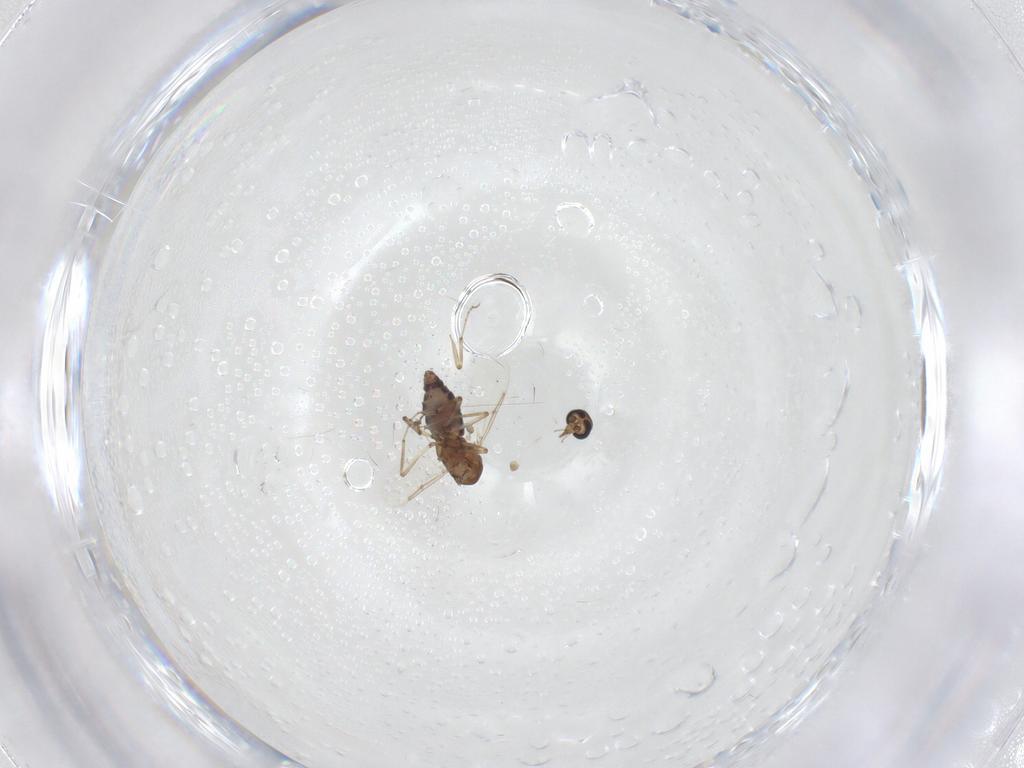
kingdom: Animalia
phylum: Arthropoda
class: Insecta
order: Diptera
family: Ceratopogonidae
